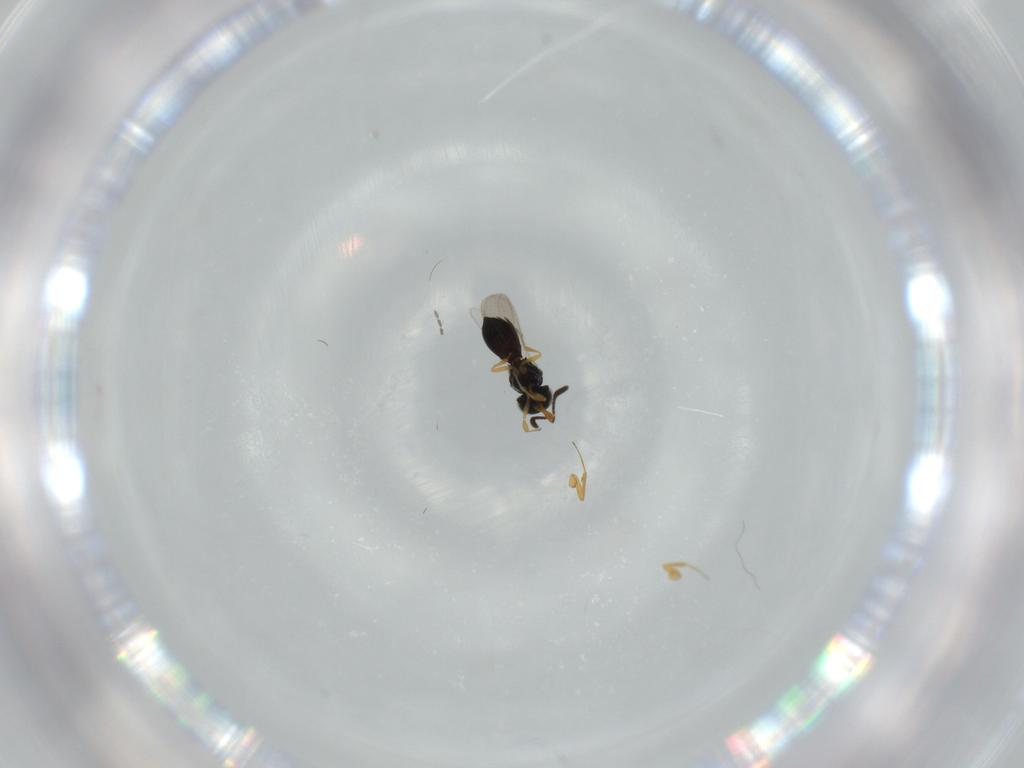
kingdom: Animalia
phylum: Arthropoda
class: Insecta
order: Hymenoptera
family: Scelionidae
